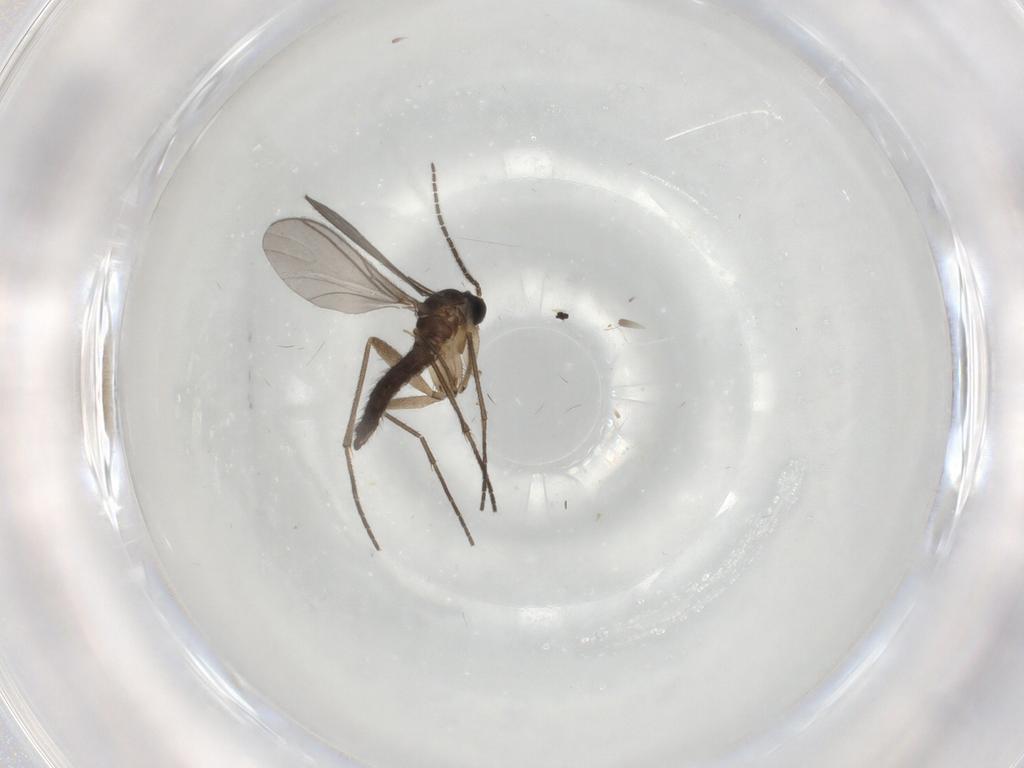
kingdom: Animalia
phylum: Arthropoda
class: Insecta
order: Diptera
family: Sciaridae
